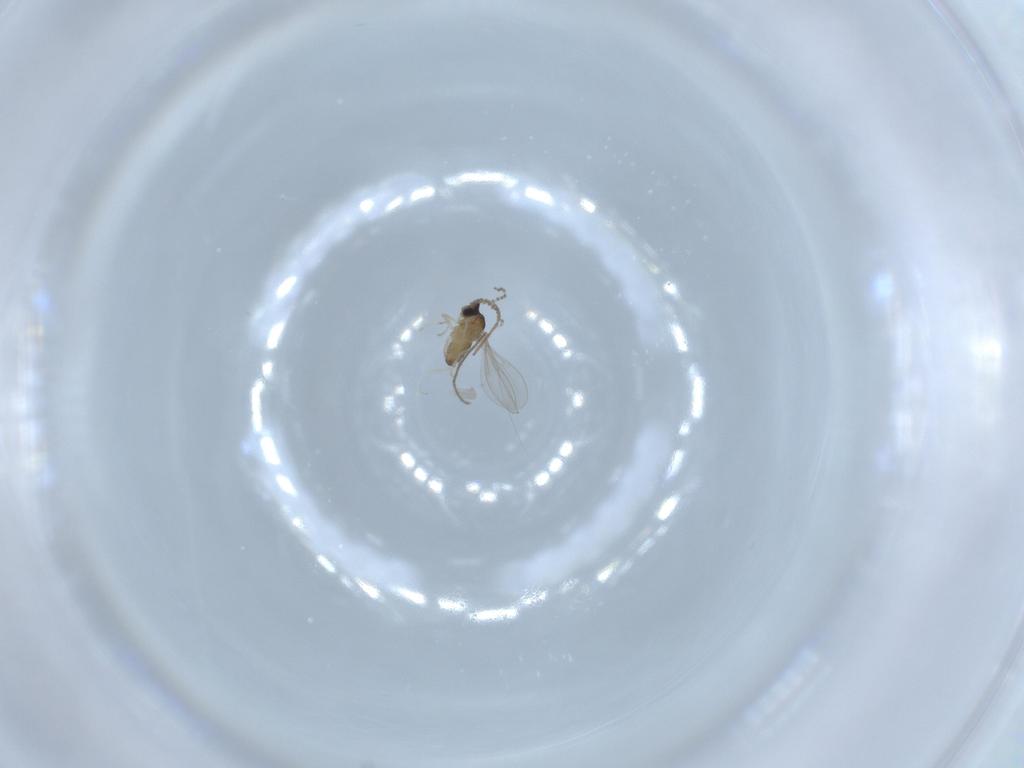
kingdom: Animalia
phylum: Arthropoda
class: Insecta
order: Diptera
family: Cecidomyiidae
